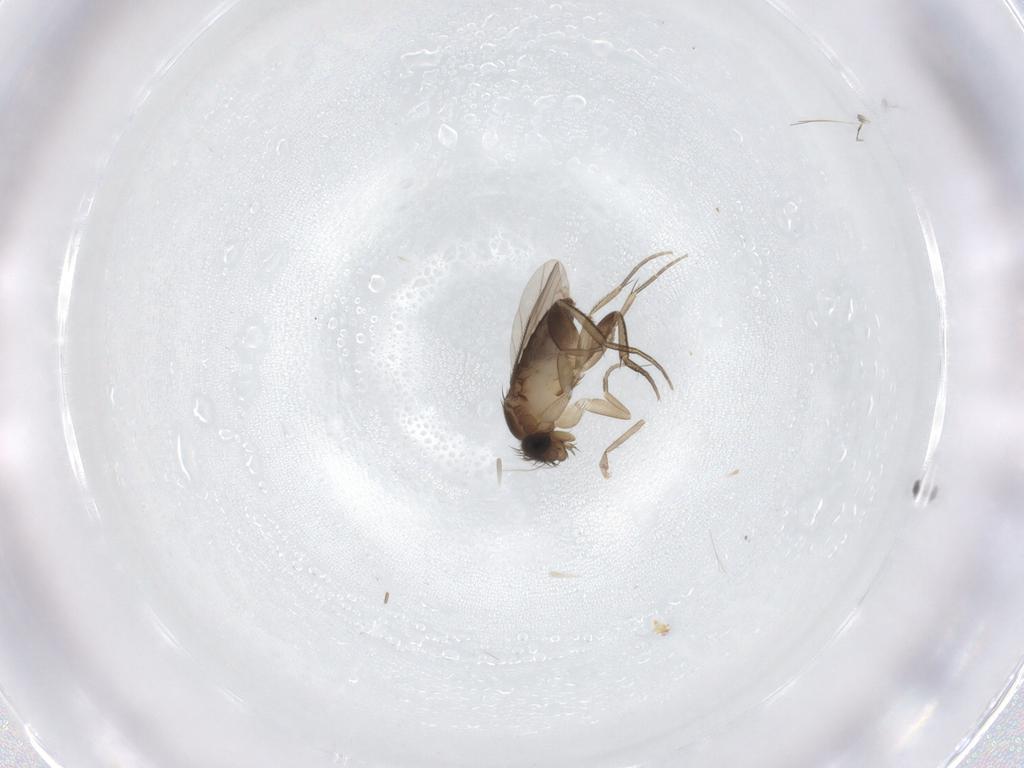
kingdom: Animalia
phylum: Arthropoda
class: Insecta
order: Diptera
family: Phoridae
